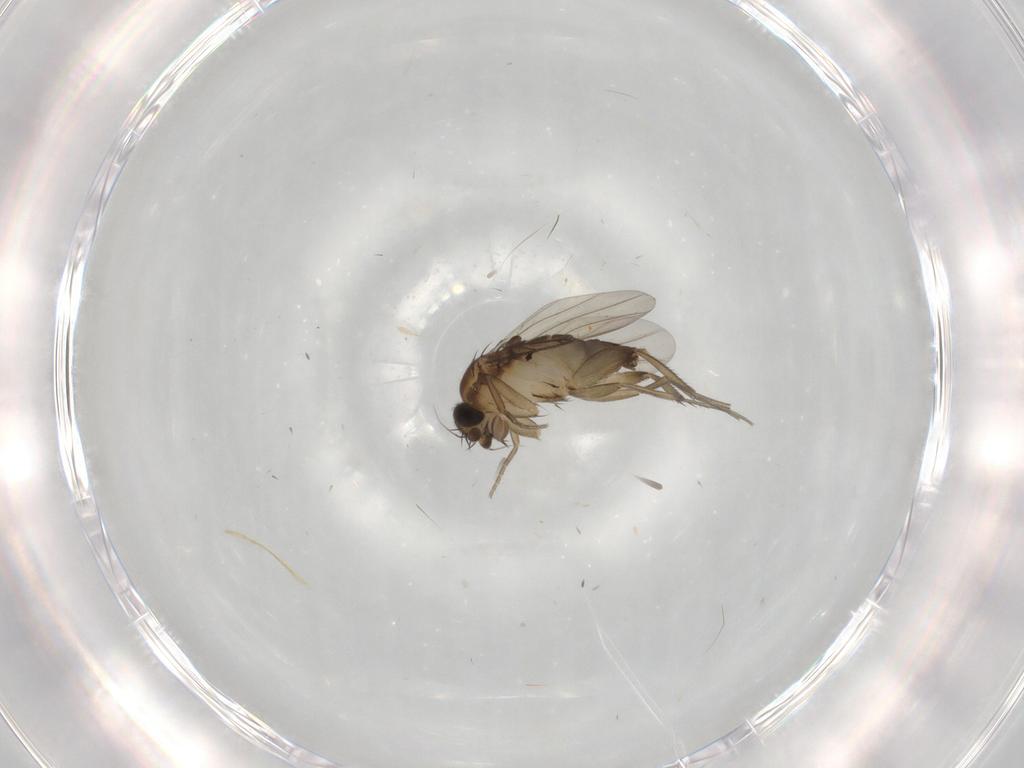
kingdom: Animalia
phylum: Arthropoda
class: Insecta
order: Diptera
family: Phoridae
